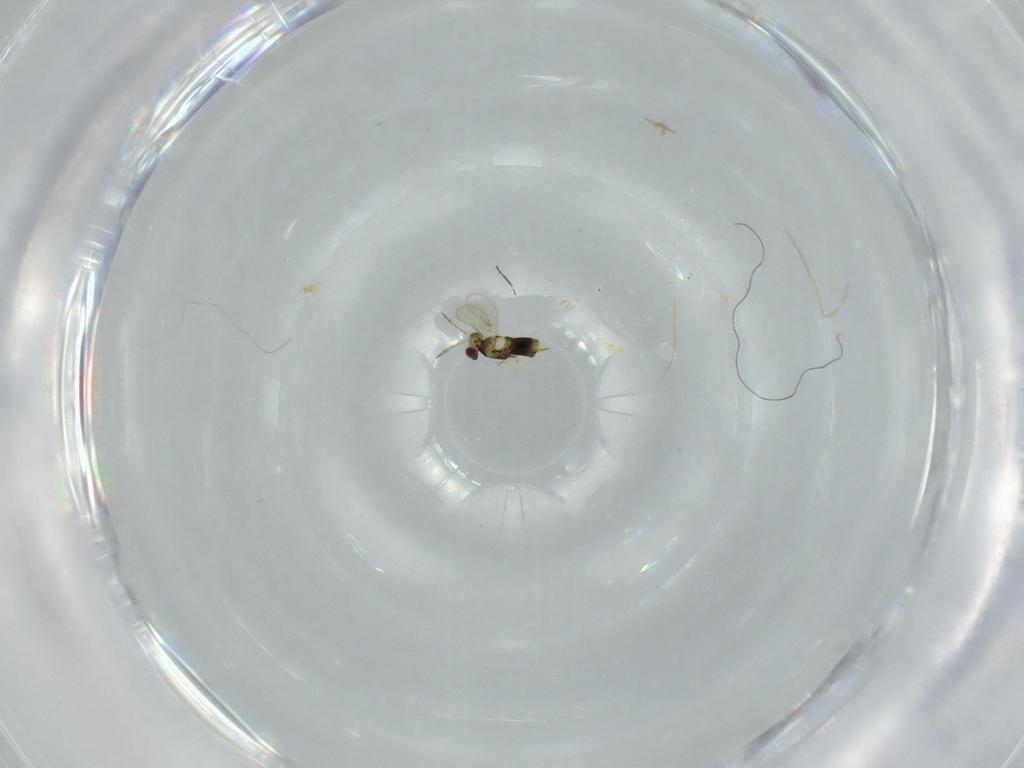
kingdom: Animalia
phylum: Arthropoda
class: Insecta
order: Hymenoptera
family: Aphelinidae
